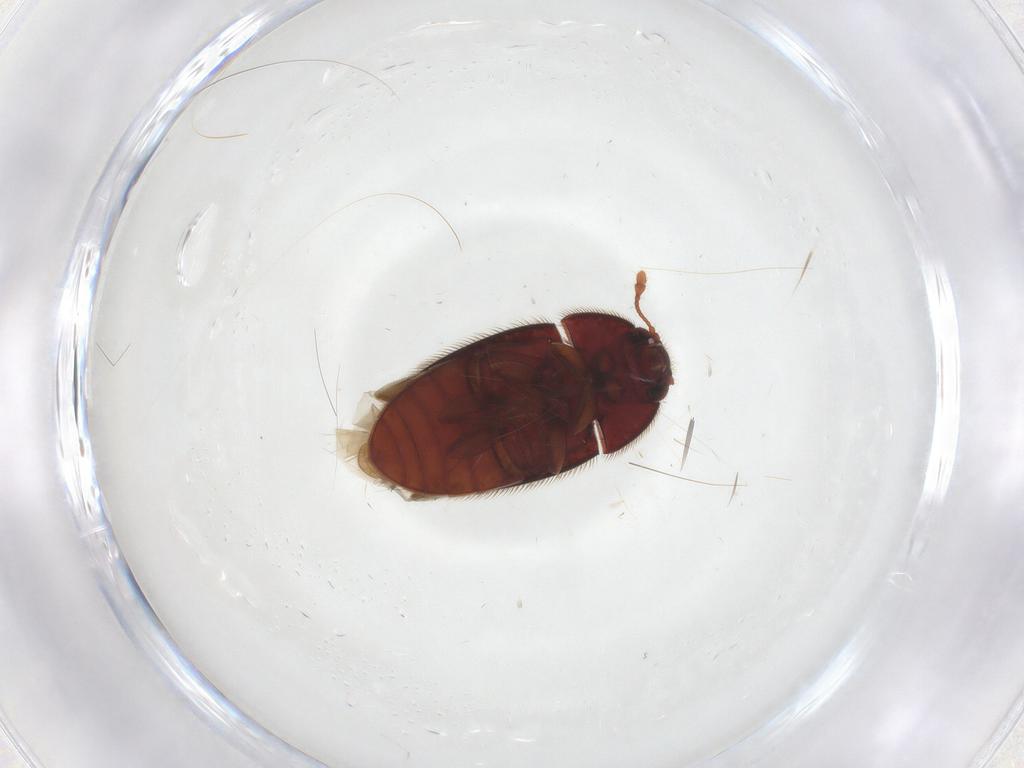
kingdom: Animalia
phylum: Arthropoda
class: Insecta
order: Coleoptera
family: Biphyllidae
